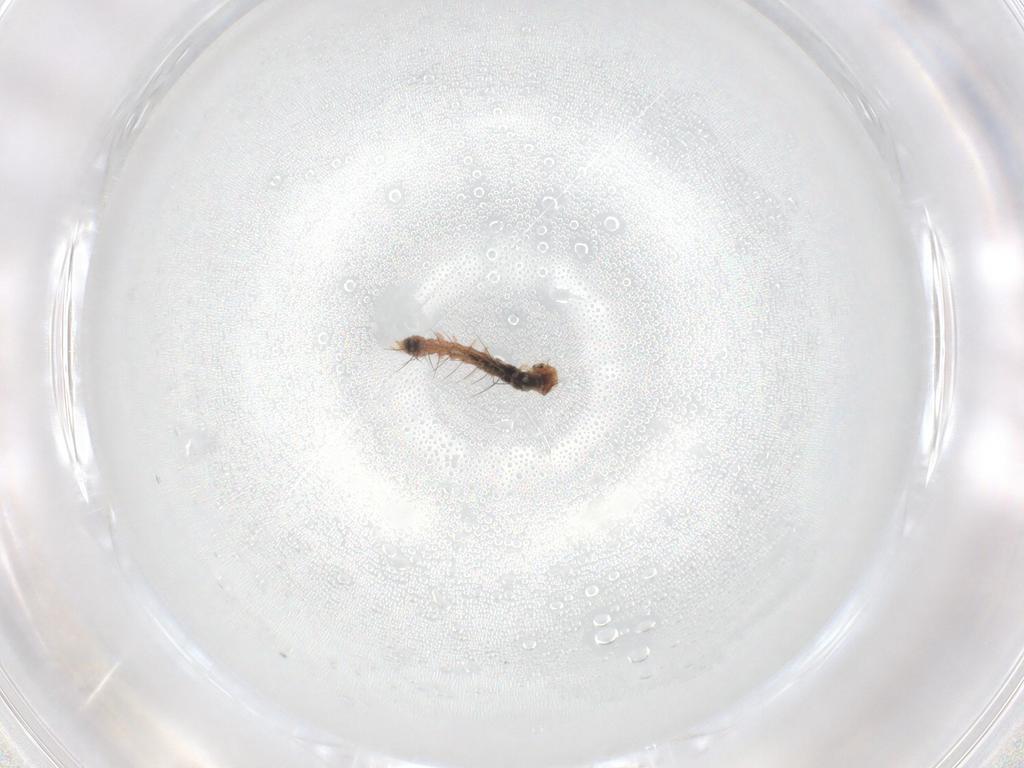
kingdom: Animalia
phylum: Arthropoda
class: Insecta
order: Lepidoptera
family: Erebidae
